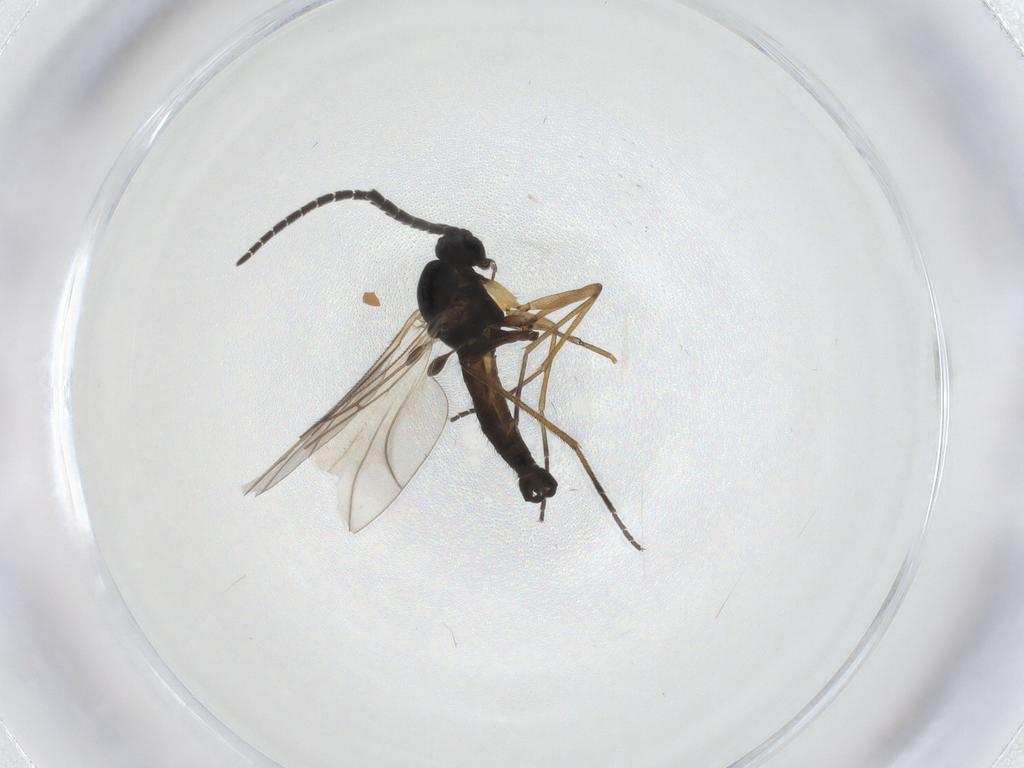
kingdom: Animalia
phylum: Arthropoda
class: Insecta
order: Diptera
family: Sciaridae
